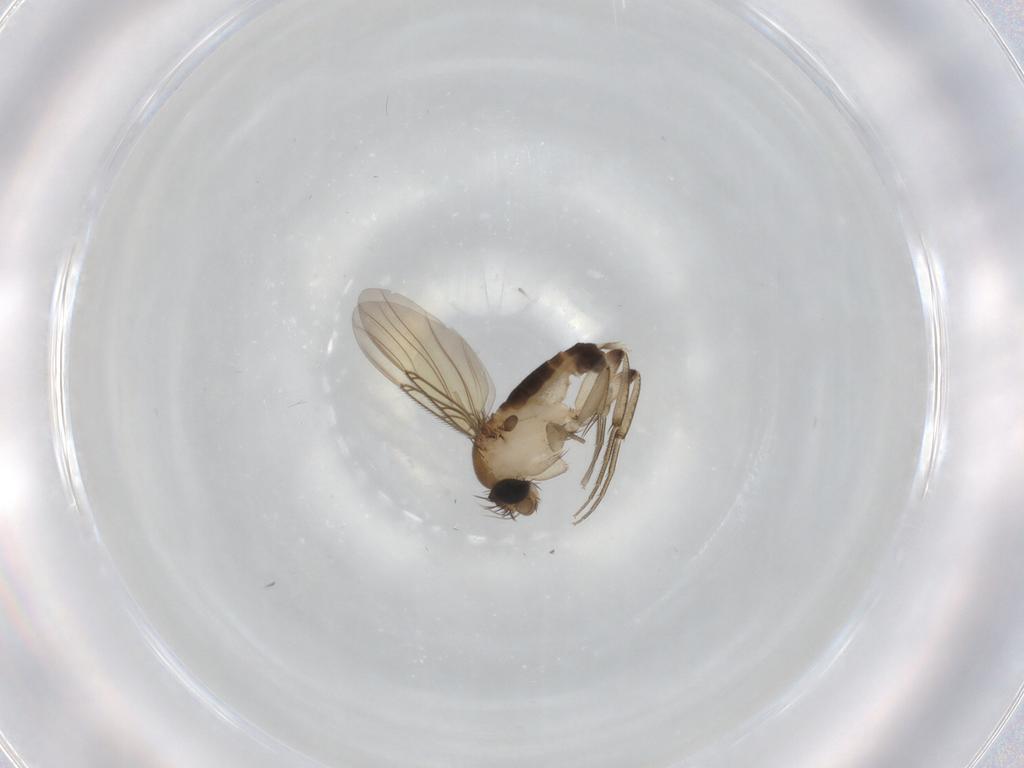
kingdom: Animalia
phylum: Arthropoda
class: Insecta
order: Diptera
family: Phoridae
